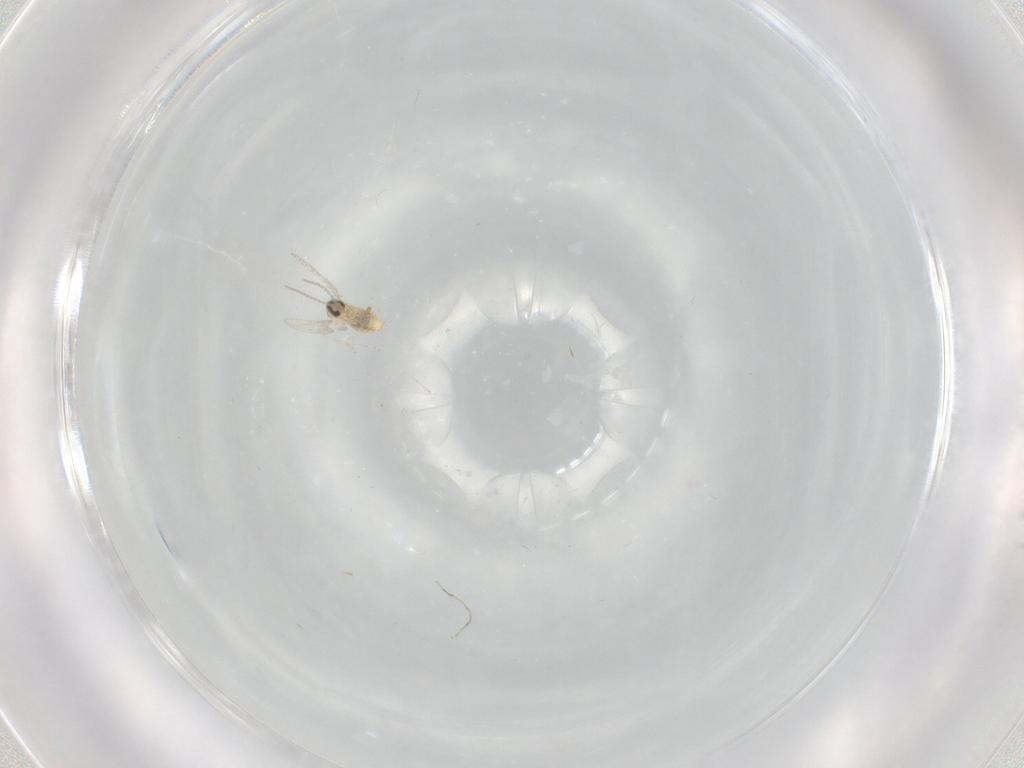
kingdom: Animalia
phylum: Arthropoda
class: Insecta
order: Diptera
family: Cecidomyiidae
